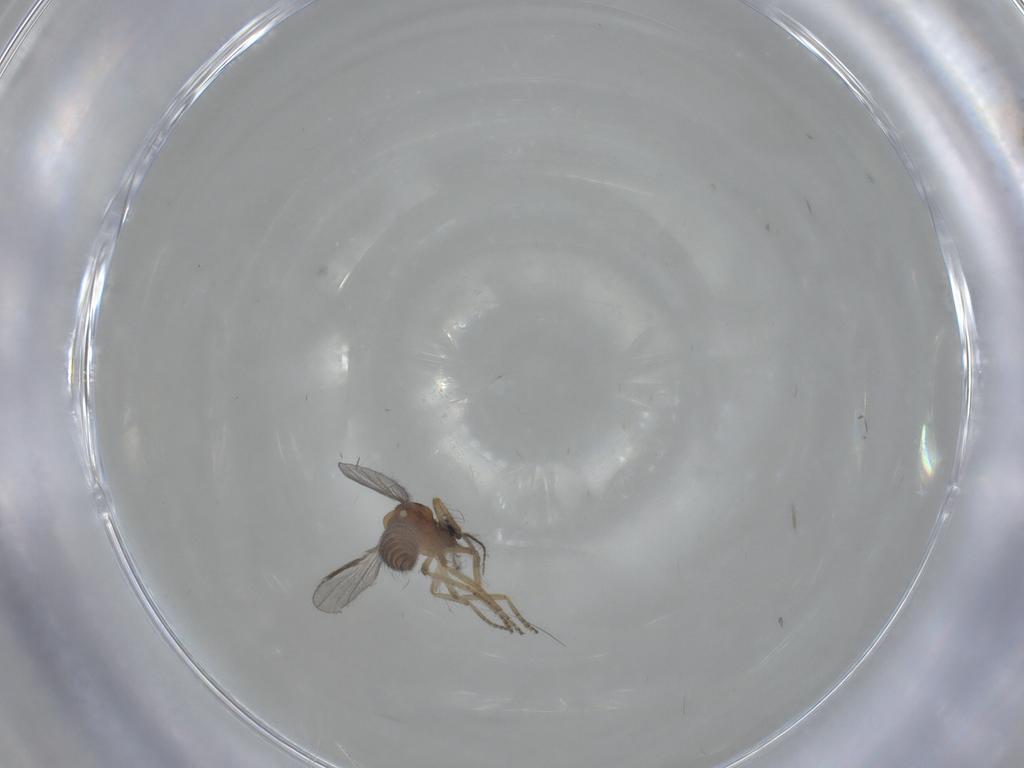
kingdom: Animalia
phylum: Arthropoda
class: Insecta
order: Diptera
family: Ceratopogonidae
